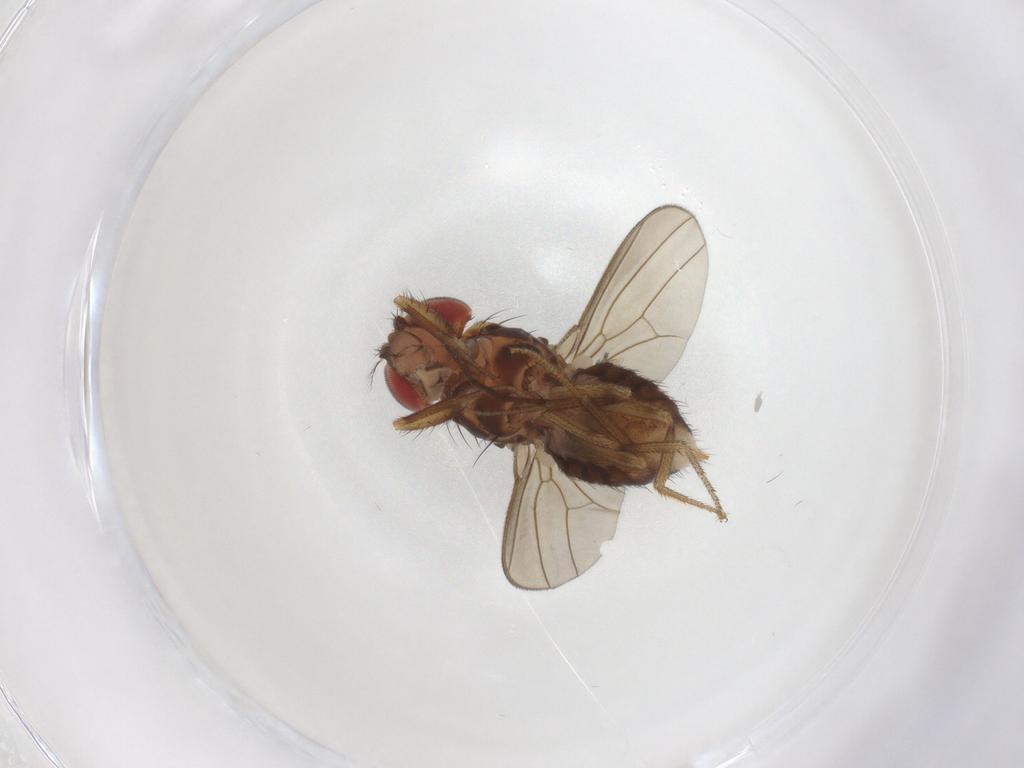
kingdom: Animalia
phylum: Arthropoda
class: Insecta
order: Diptera
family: Drosophilidae
